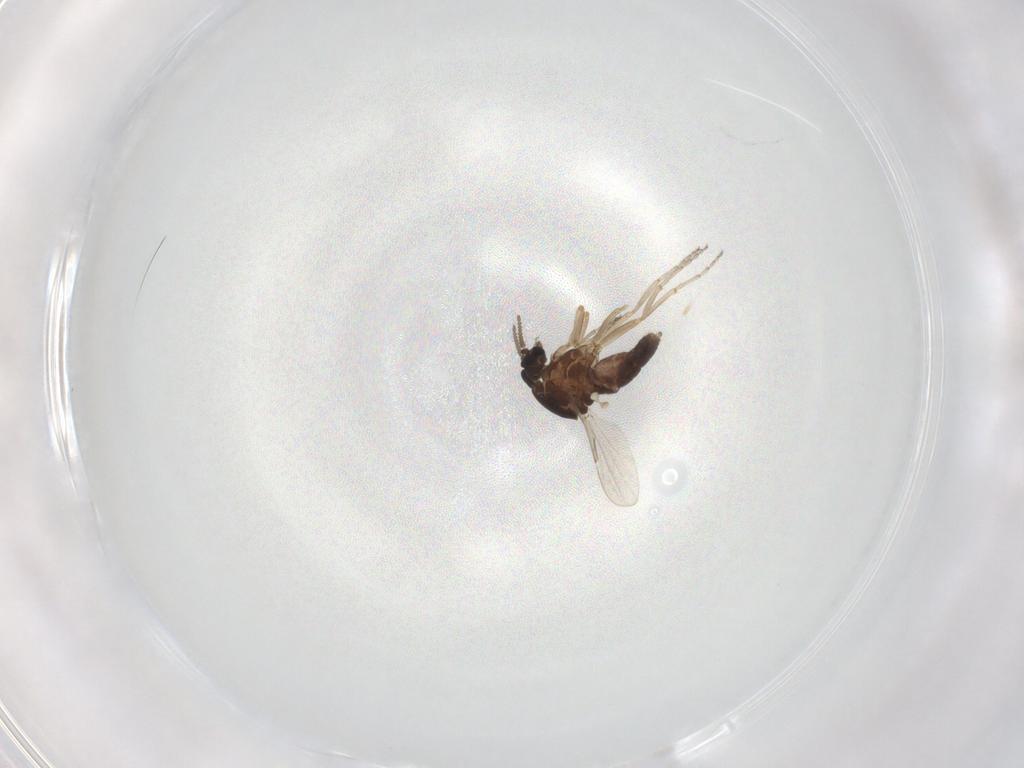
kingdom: Animalia
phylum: Arthropoda
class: Insecta
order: Diptera
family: Ceratopogonidae
